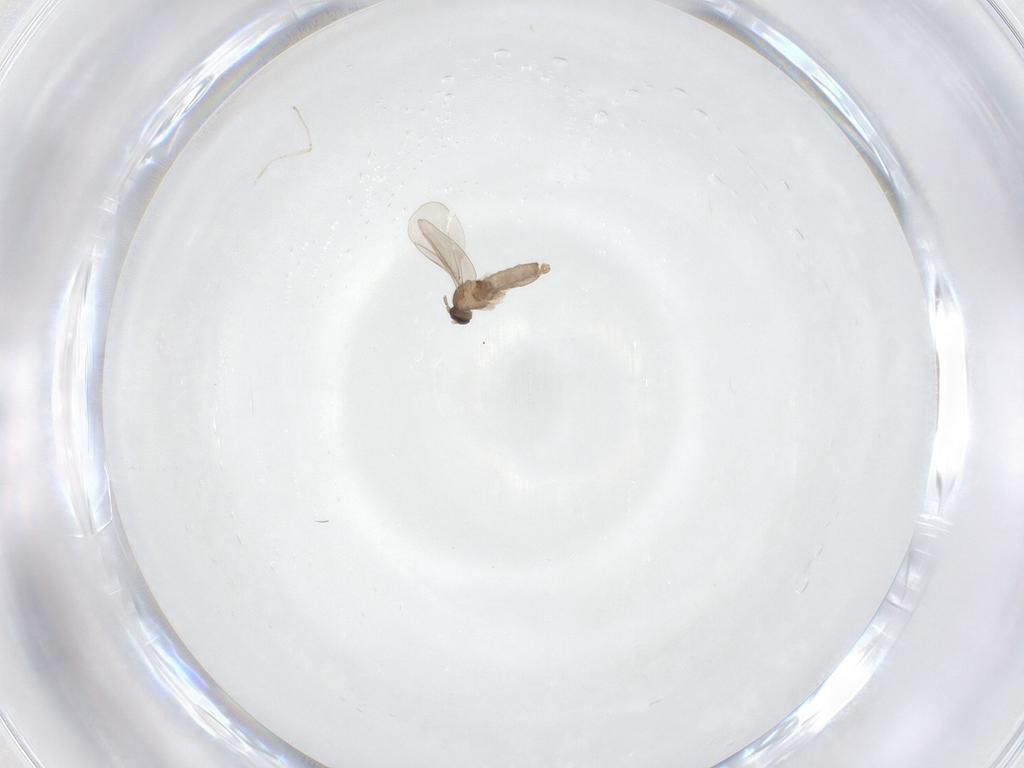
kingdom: Animalia
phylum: Arthropoda
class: Insecta
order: Diptera
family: Cecidomyiidae
